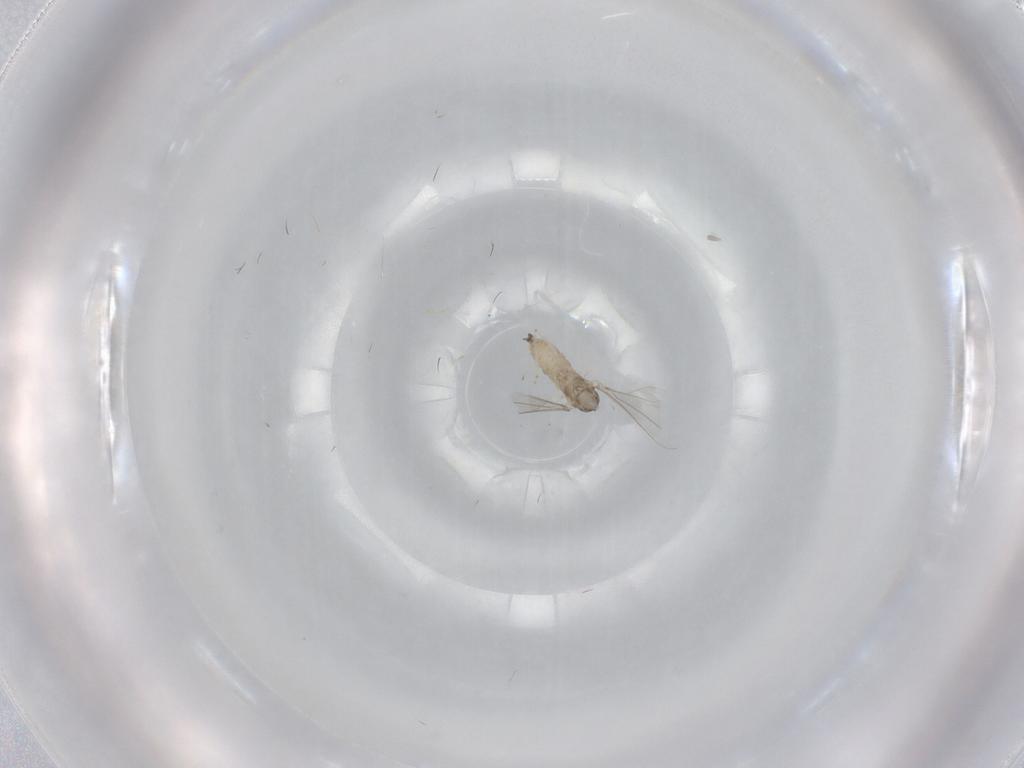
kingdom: Animalia
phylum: Arthropoda
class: Insecta
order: Diptera
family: Cecidomyiidae
